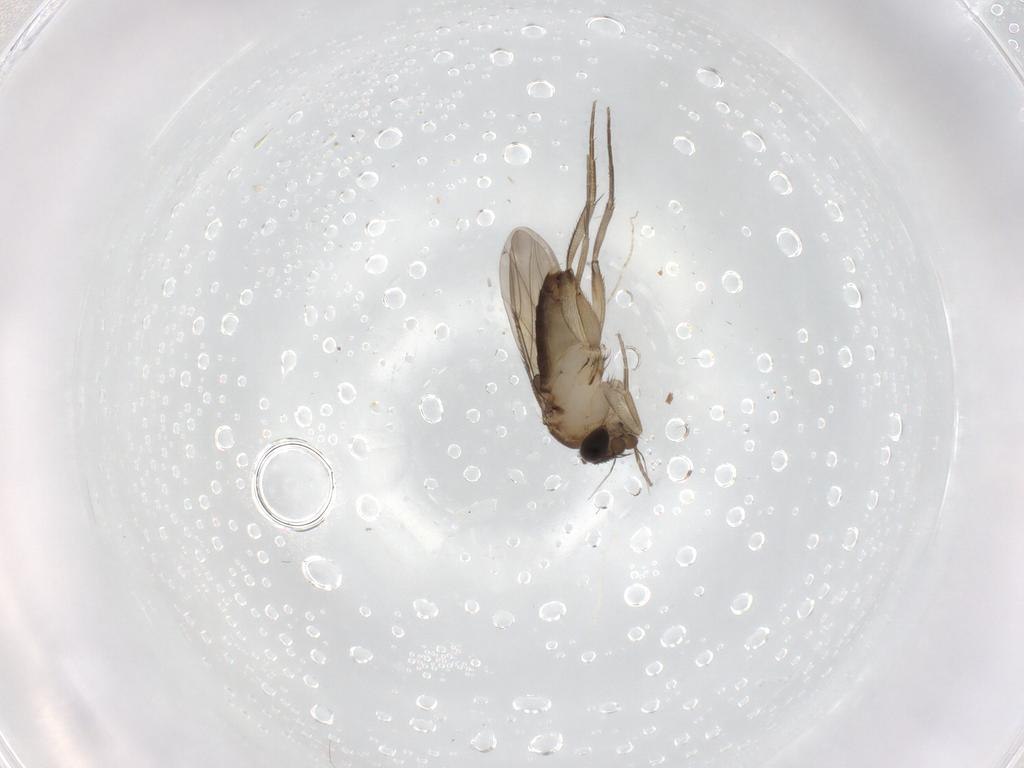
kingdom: Animalia
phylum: Arthropoda
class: Insecta
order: Diptera
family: Phoridae
